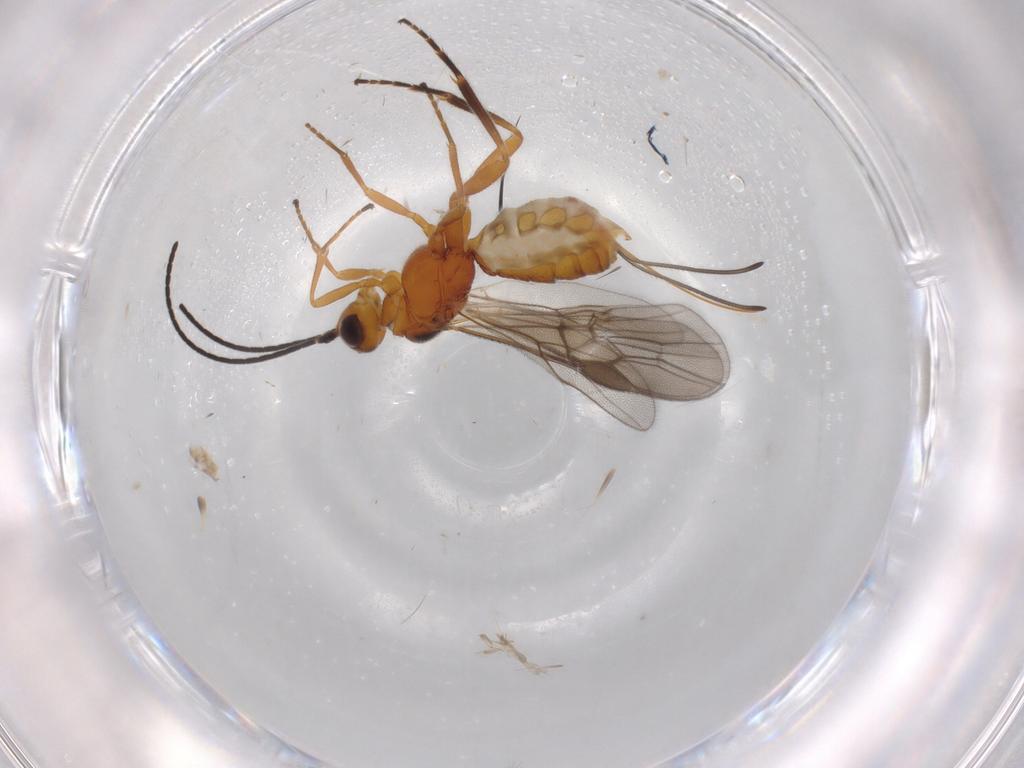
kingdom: Animalia
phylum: Arthropoda
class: Insecta
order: Hymenoptera
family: Braconidae
